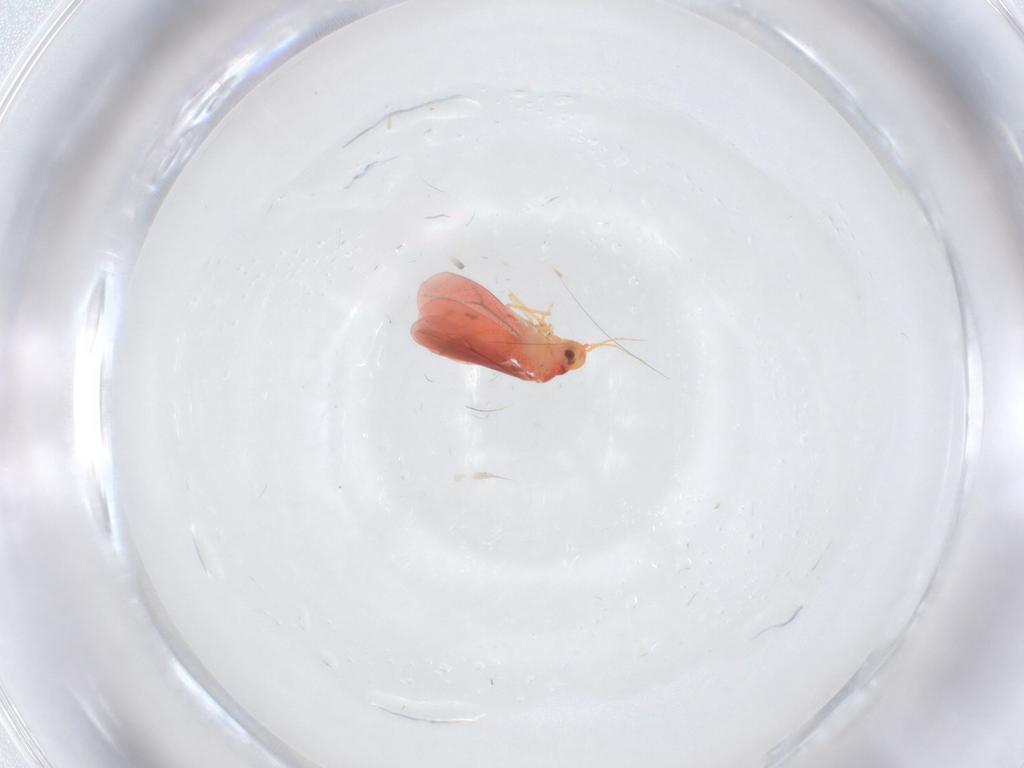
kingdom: Animalia
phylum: Arthropoda
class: Insecta
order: Hemiptera
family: Aleyrodidae
